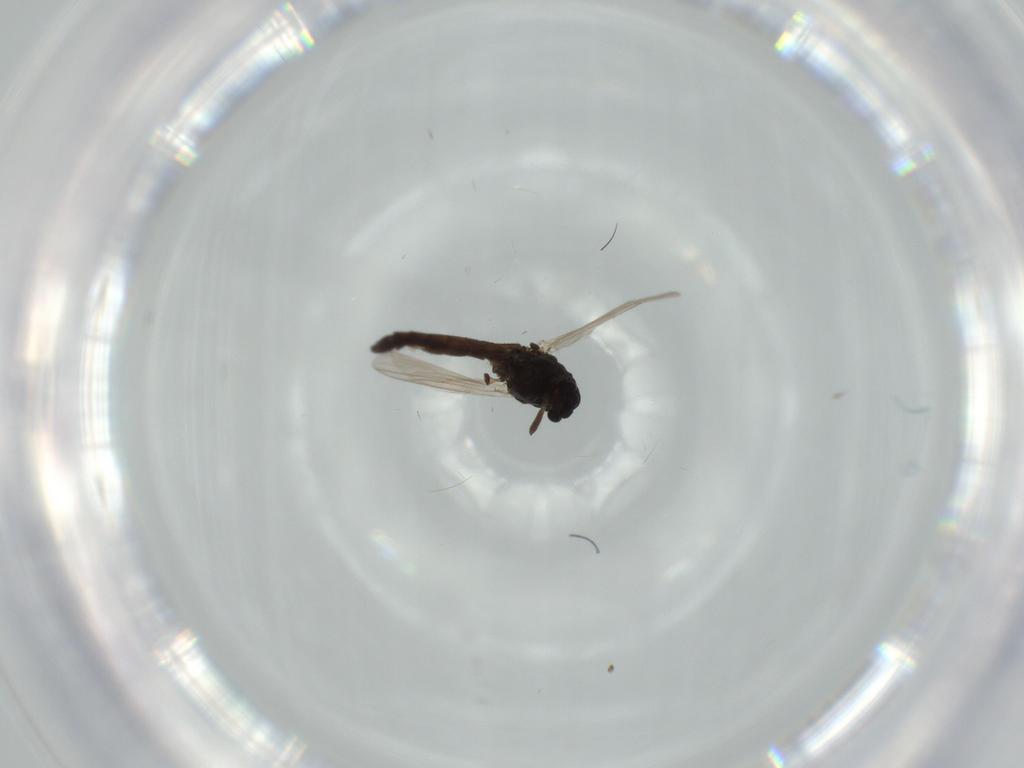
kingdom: Animalia
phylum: Arthropoda
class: Insecta
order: Diptera
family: Chironomidae
